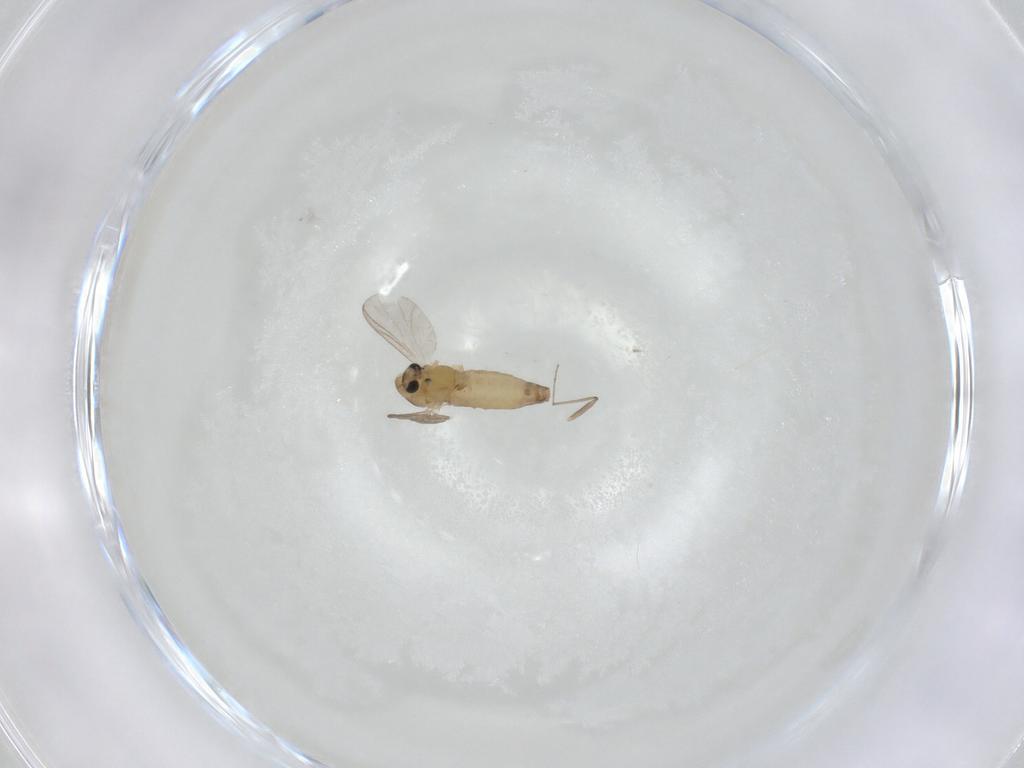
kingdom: Animalia
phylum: Arthropoda
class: Insecta
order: Diptera
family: Chironomidae
